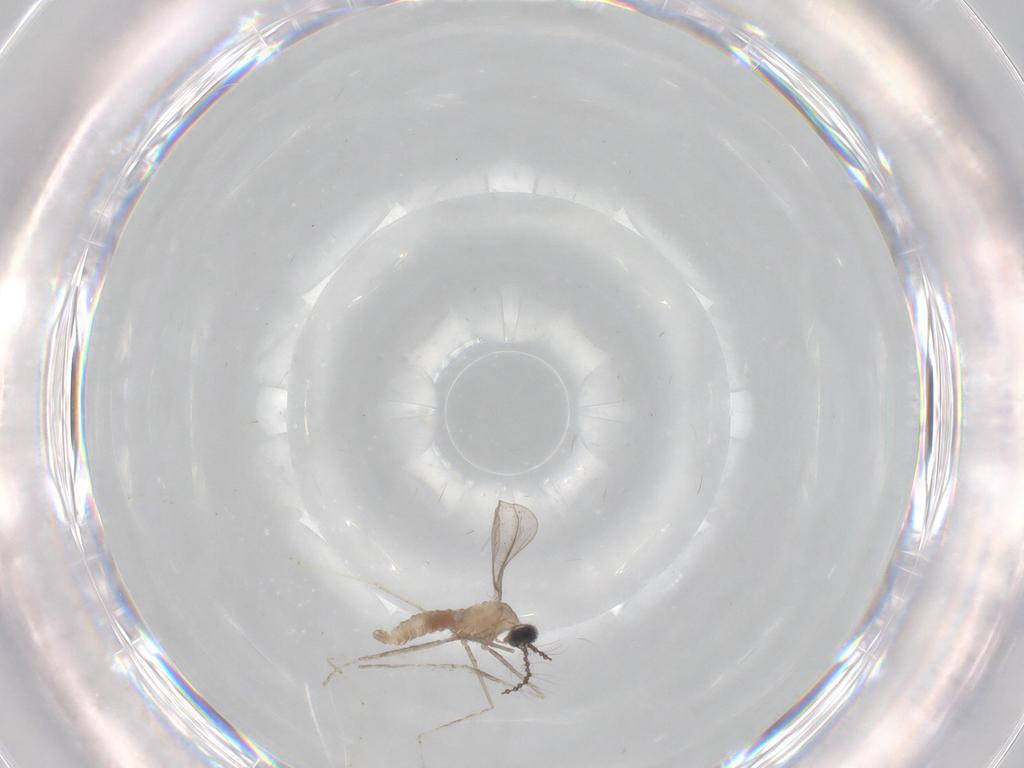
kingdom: Animalia
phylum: Arthropoda
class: Insecta
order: Diptera
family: Cecidomyiidae
